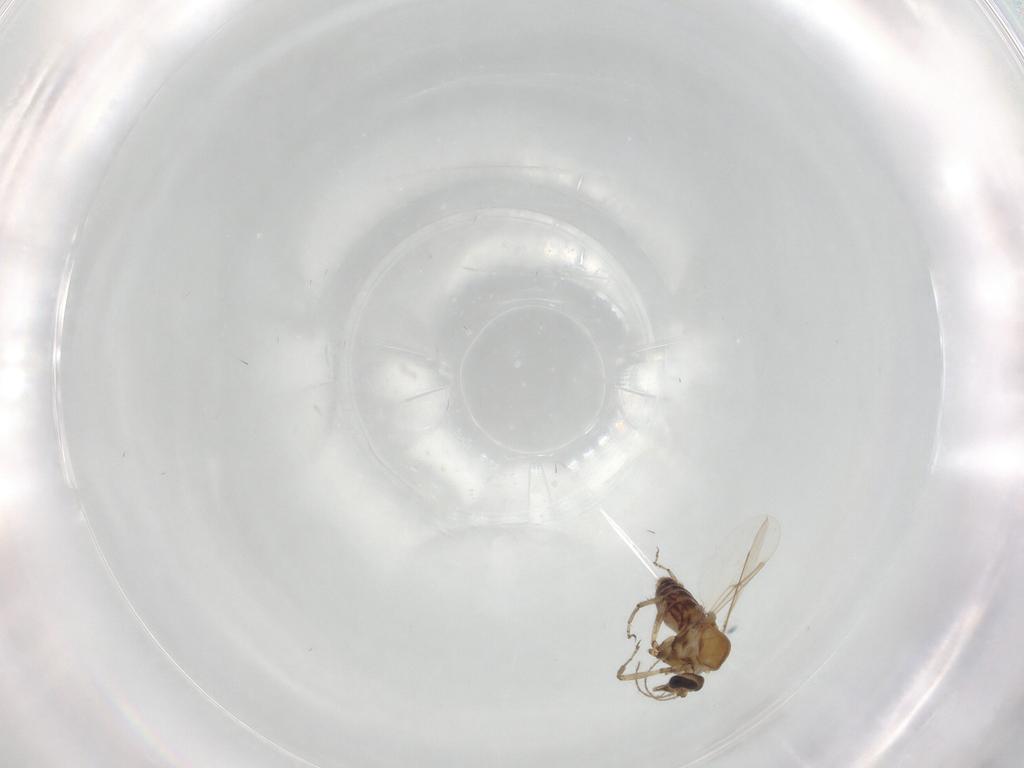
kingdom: Animalia
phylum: Arthropoda
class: Insecta
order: Diptera
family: Ceratopogonidae
